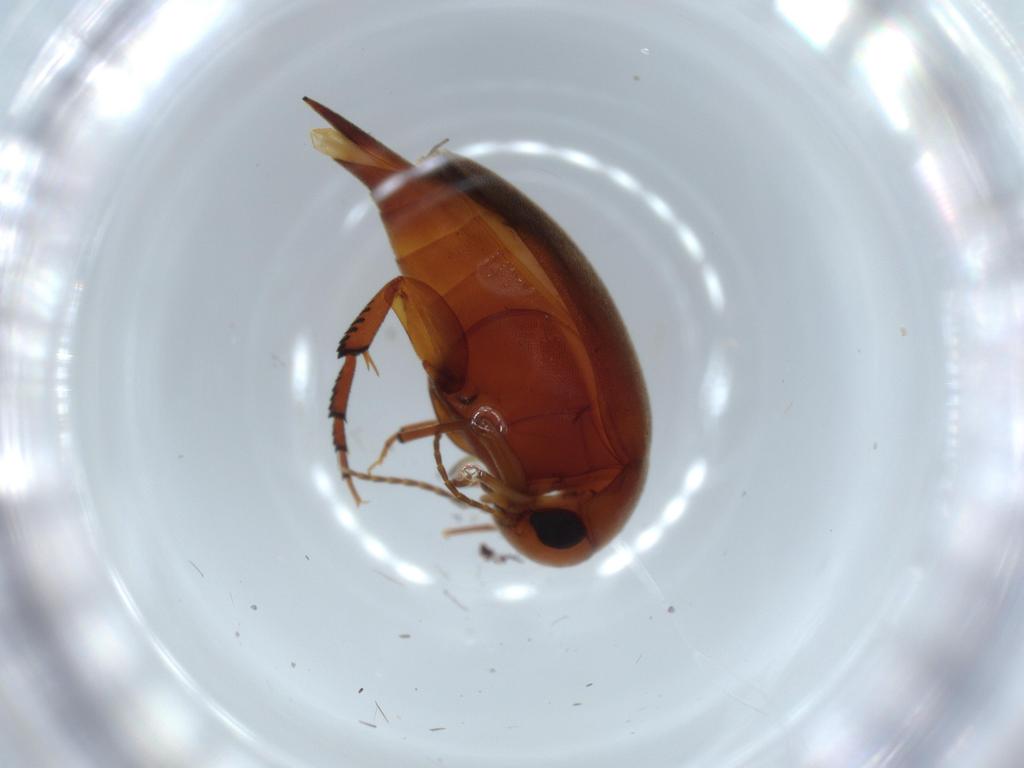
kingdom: Animalia
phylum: Arthropoda
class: Insecta
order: Coleoptera
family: Mordellidae
